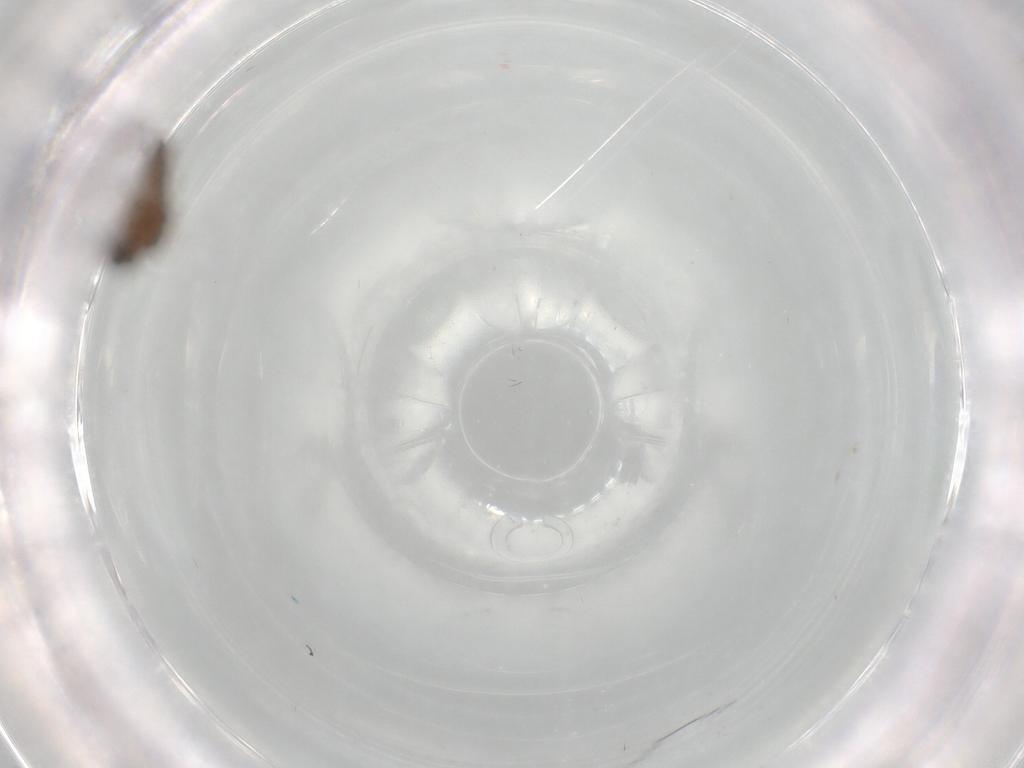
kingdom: Animalia
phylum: Arthropoda
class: Insecta
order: Diptera
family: Ceratopogonidae
